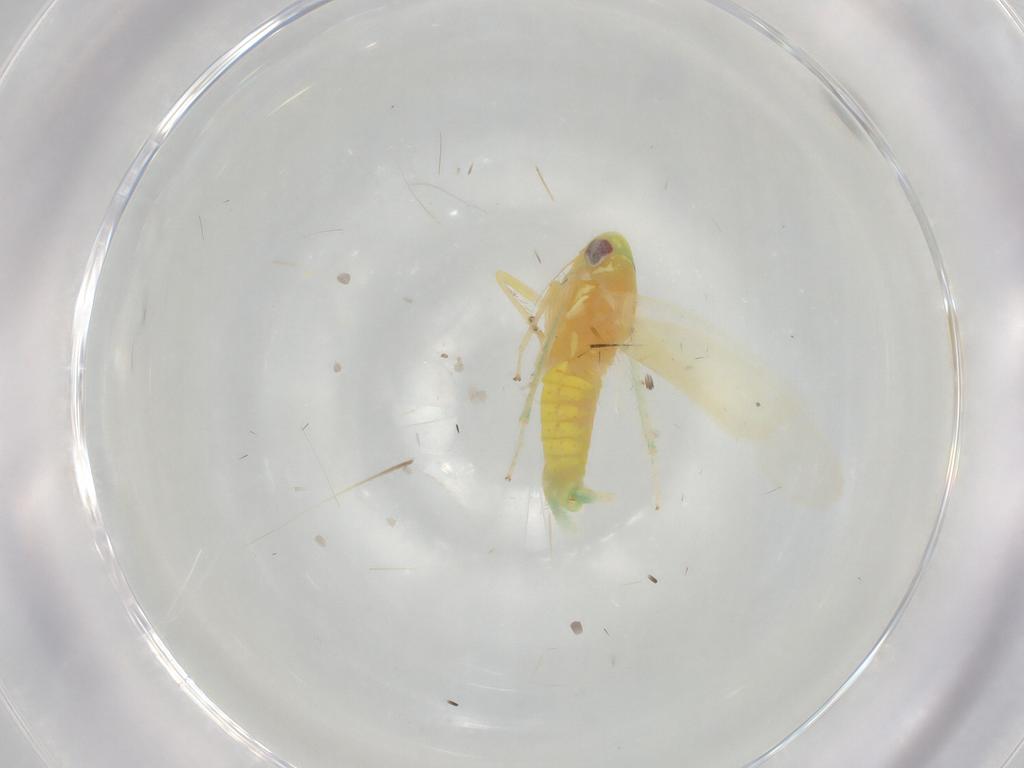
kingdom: Animalia
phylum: Arthropoda
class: Insecta
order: Hemiptera
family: Cicadellidae
